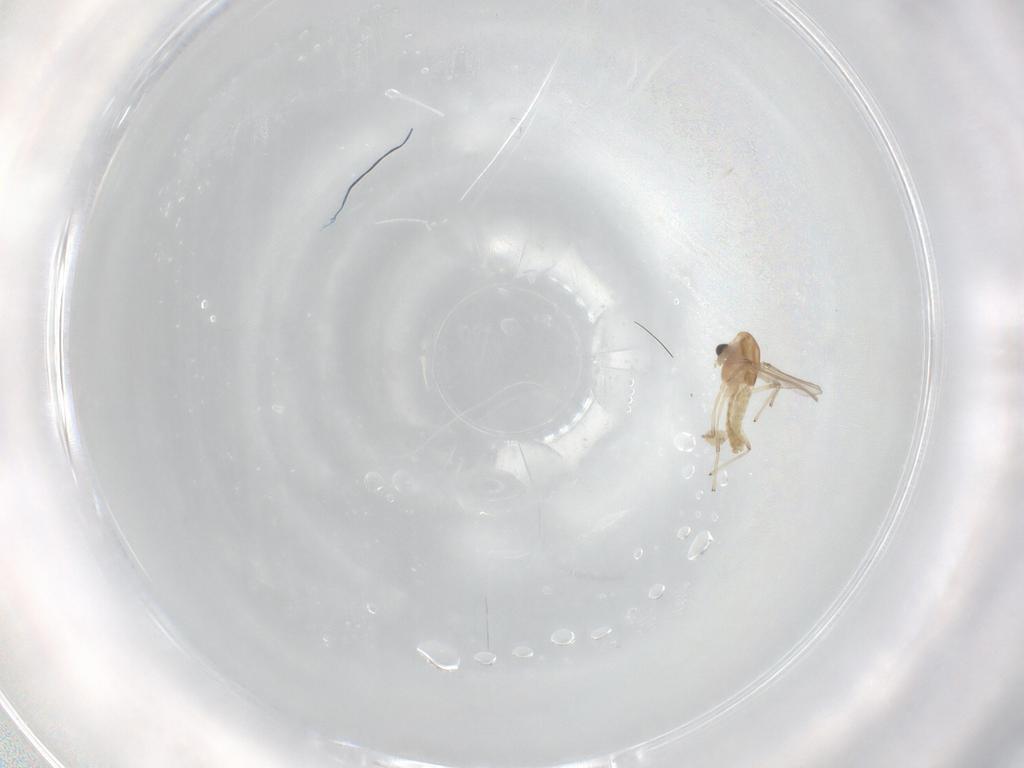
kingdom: Animalia
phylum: Arthropoda
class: Insecta
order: Diptera
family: Chironomidae
